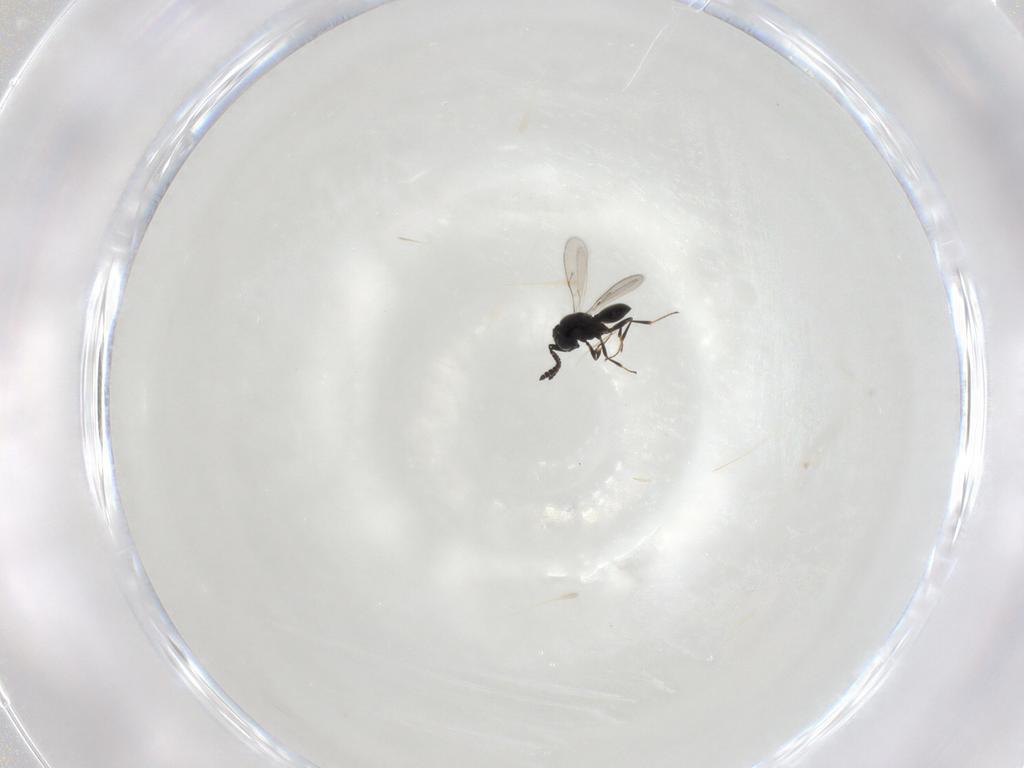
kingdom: Animalia
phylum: Arthropoda
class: Insecta
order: Hymenoptera
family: Scelionidae
